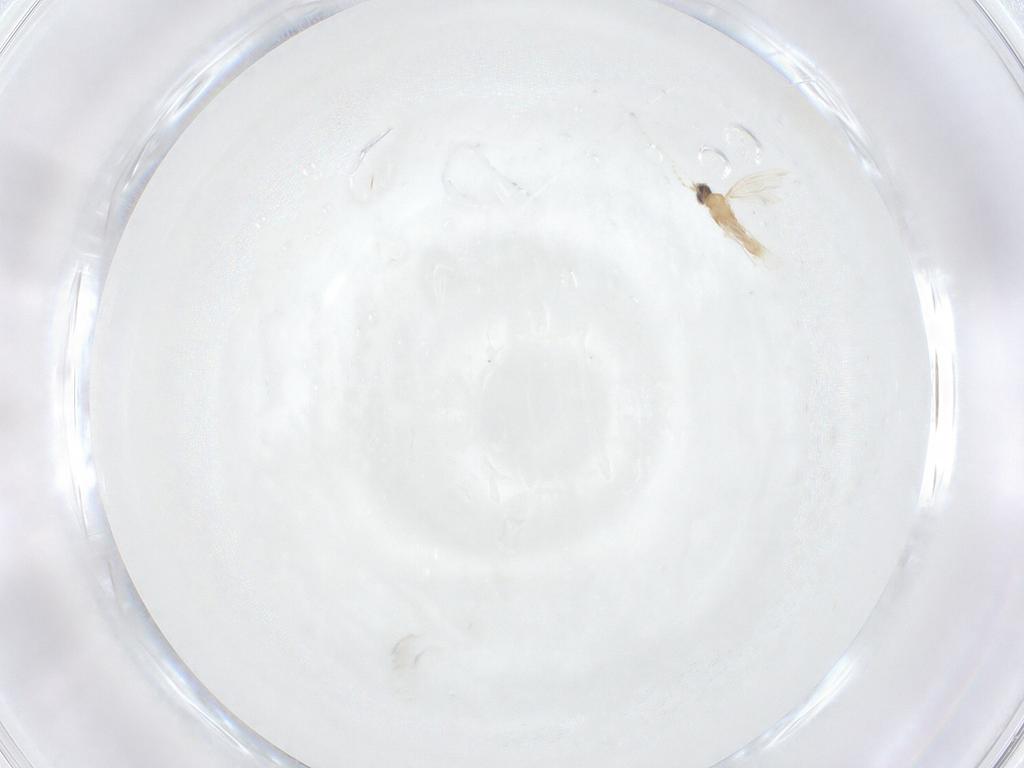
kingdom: Animalia
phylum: Arthropoda
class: Insecta
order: Diptera
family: Cecidomyiidae
